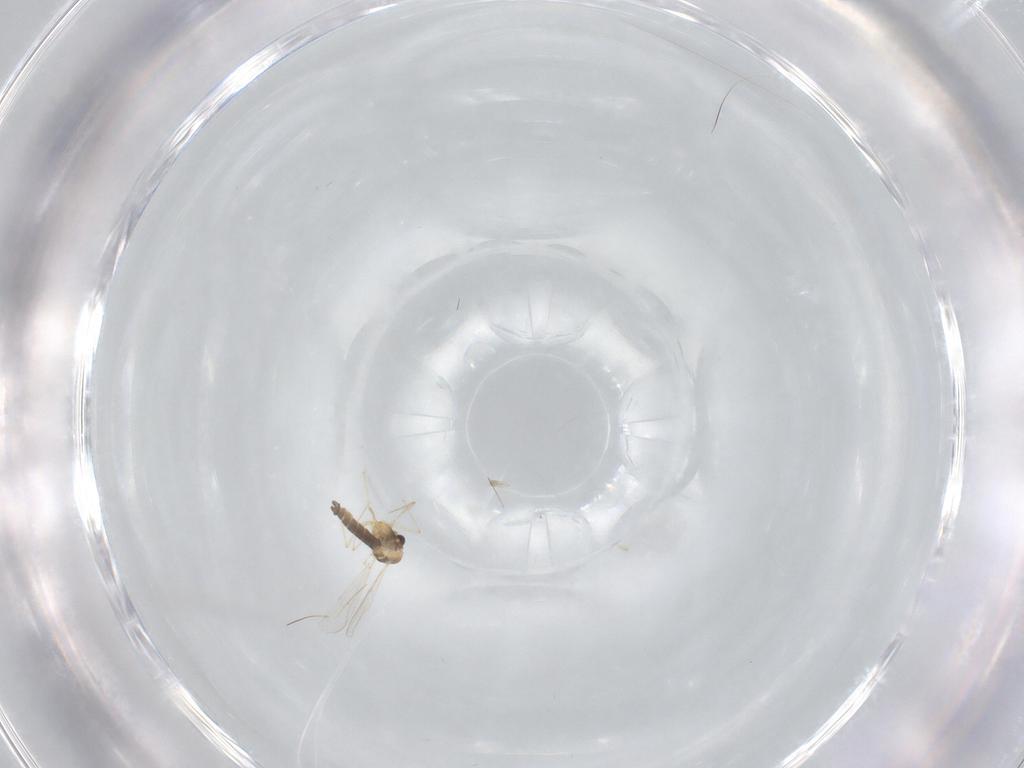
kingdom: Animalia
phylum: Arthropoda
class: Insecta
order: Diptera
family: Chironomidae
